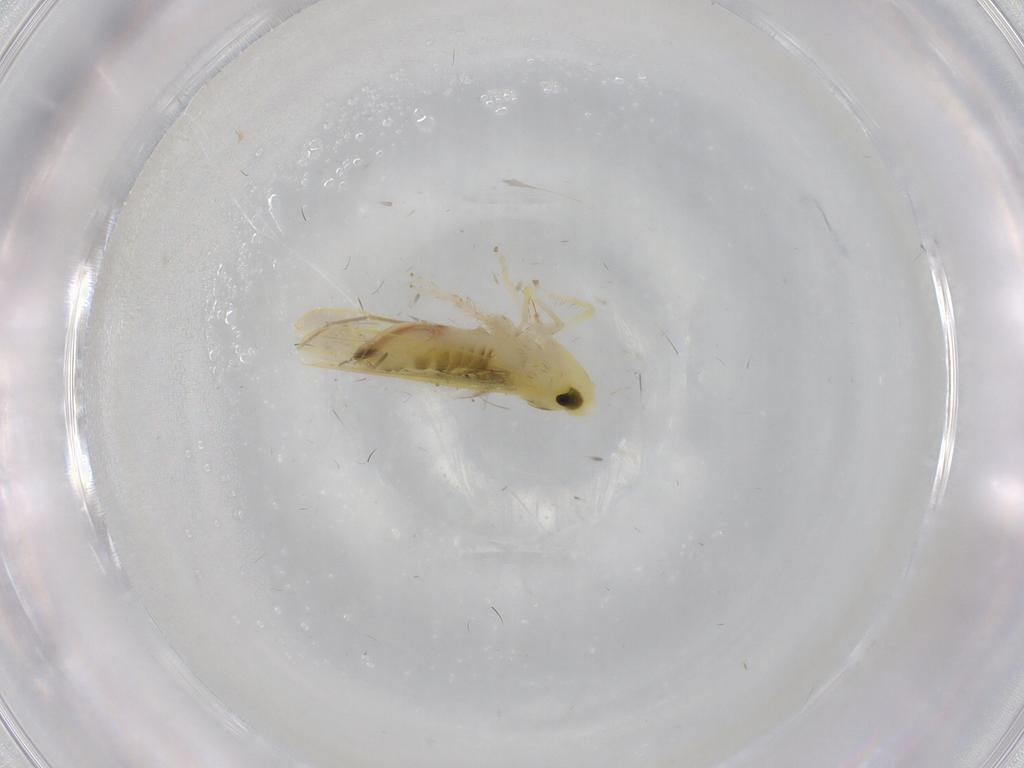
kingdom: Animalia
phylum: Arthropoda
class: Insecta
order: Hemiptera
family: Cicadellidae
